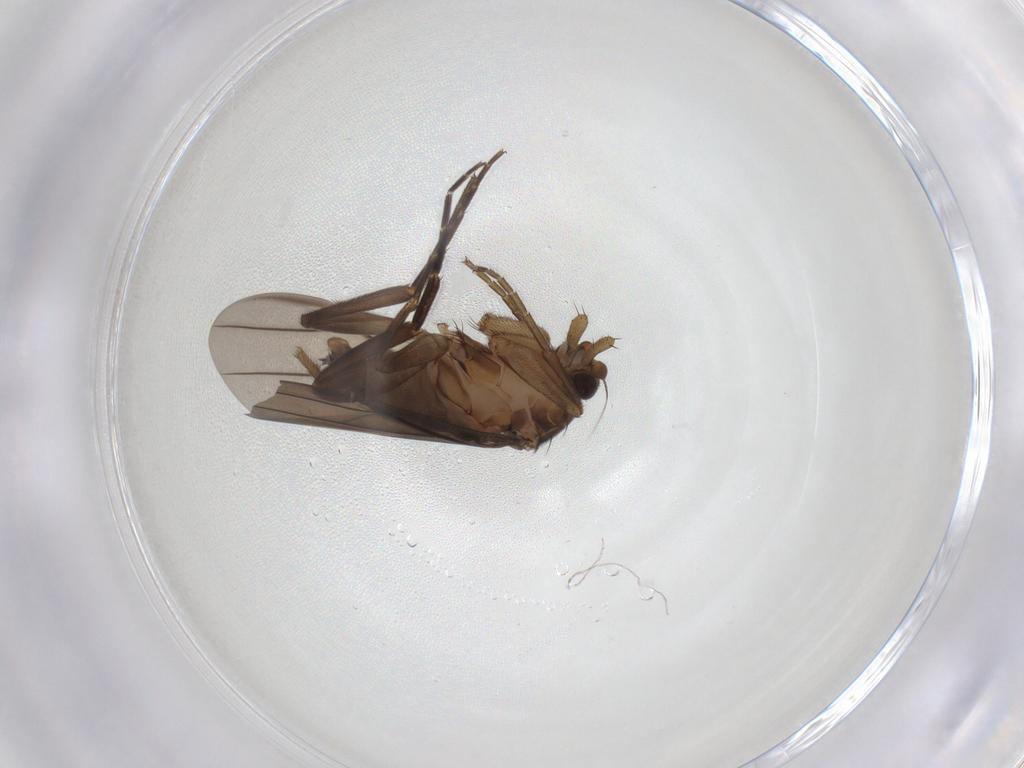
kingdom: Animalia
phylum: Arthropoda
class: Insecta
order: Diptera
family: Phoridae
